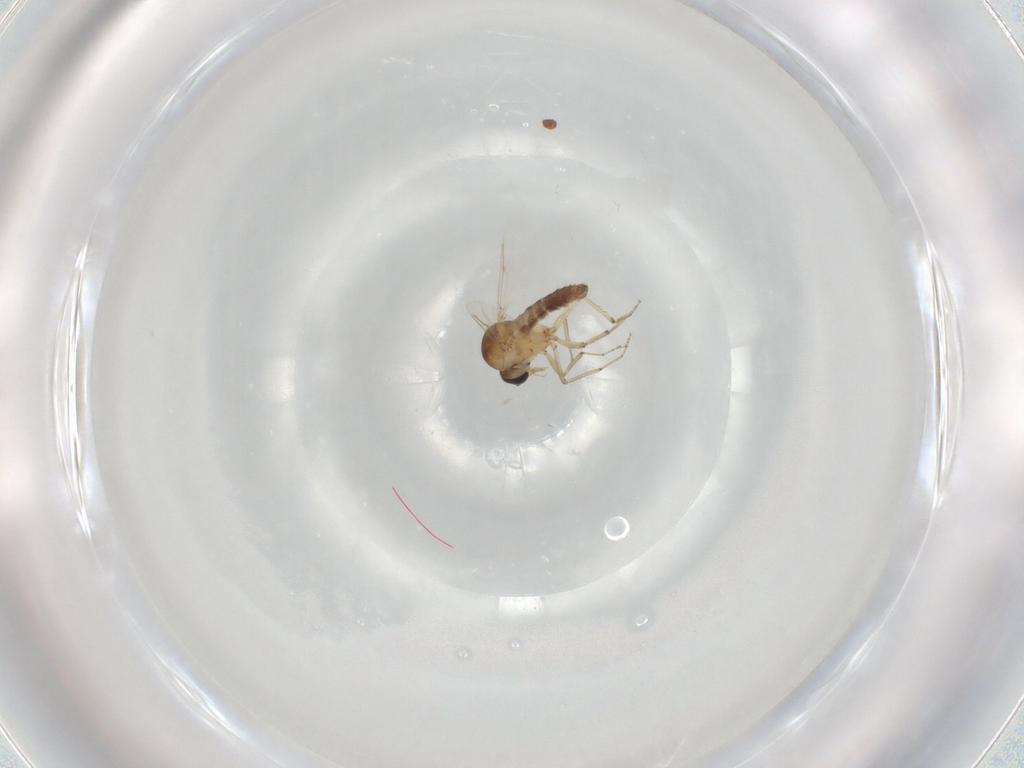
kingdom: Animalia
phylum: Arthropoda
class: Insecta
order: Diptera
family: Ceratopogonidae
